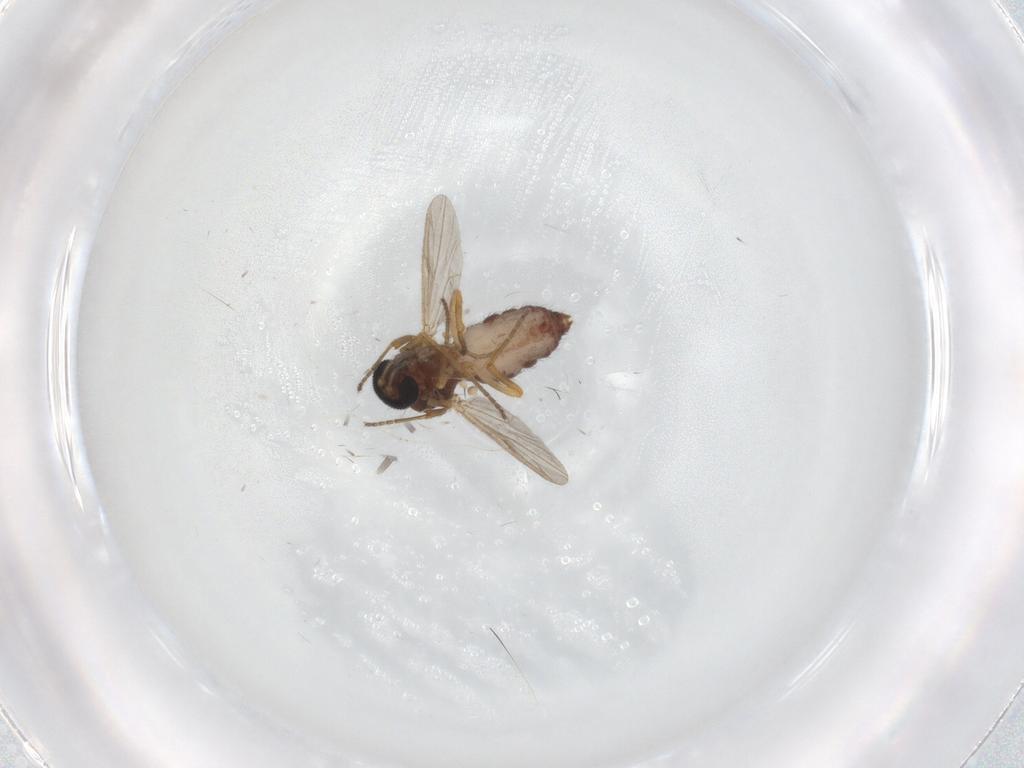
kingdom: Animalia
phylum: Arthropoda
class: Insecta
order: Diptera
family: Ceratopogonidae
